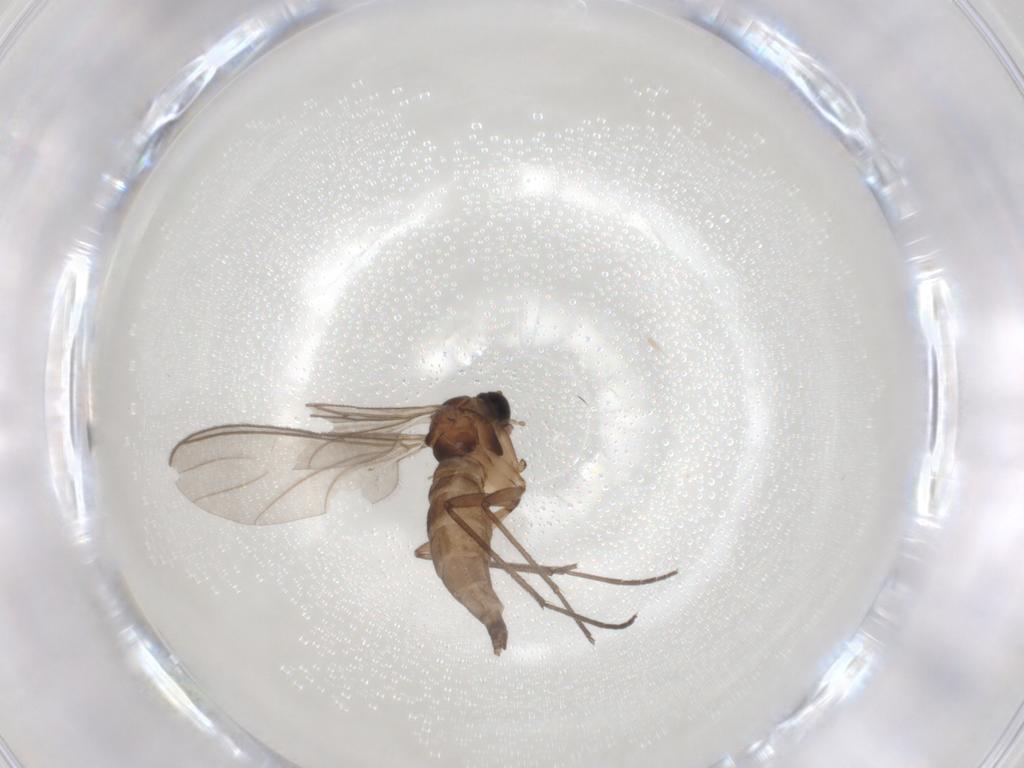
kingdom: Animalia
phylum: Arthropoda
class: Insecta
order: Diptera
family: Sciaridae
